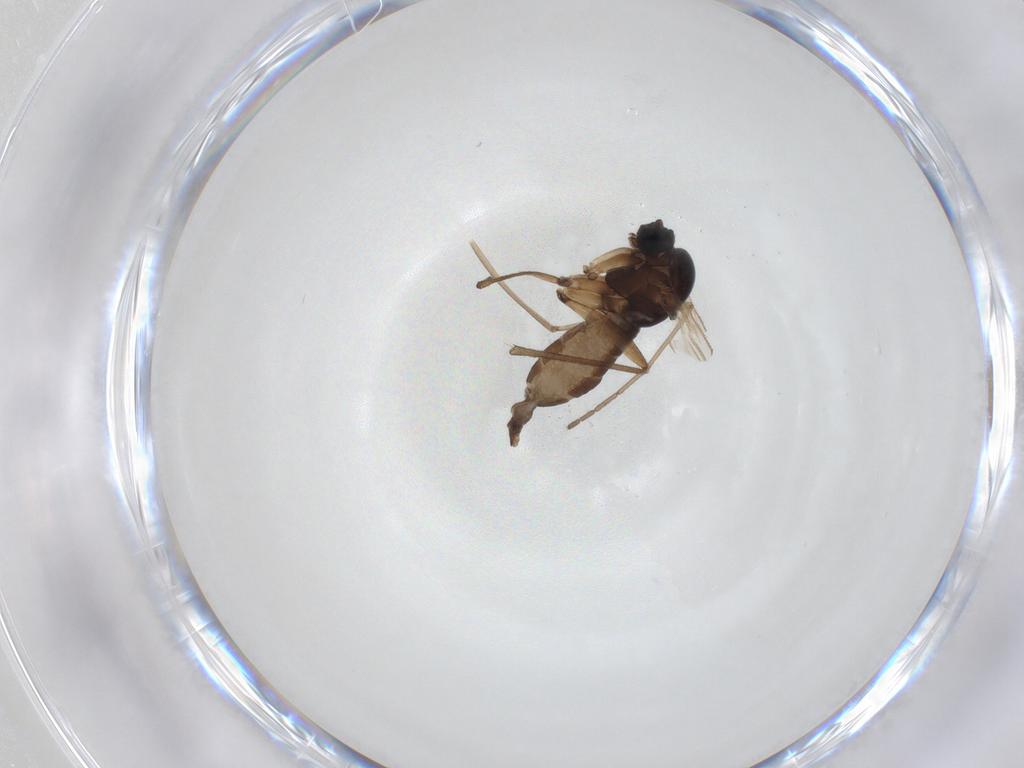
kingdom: Animalia
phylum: Arthropoda
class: Insecta
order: Diptera
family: Sciaridae
